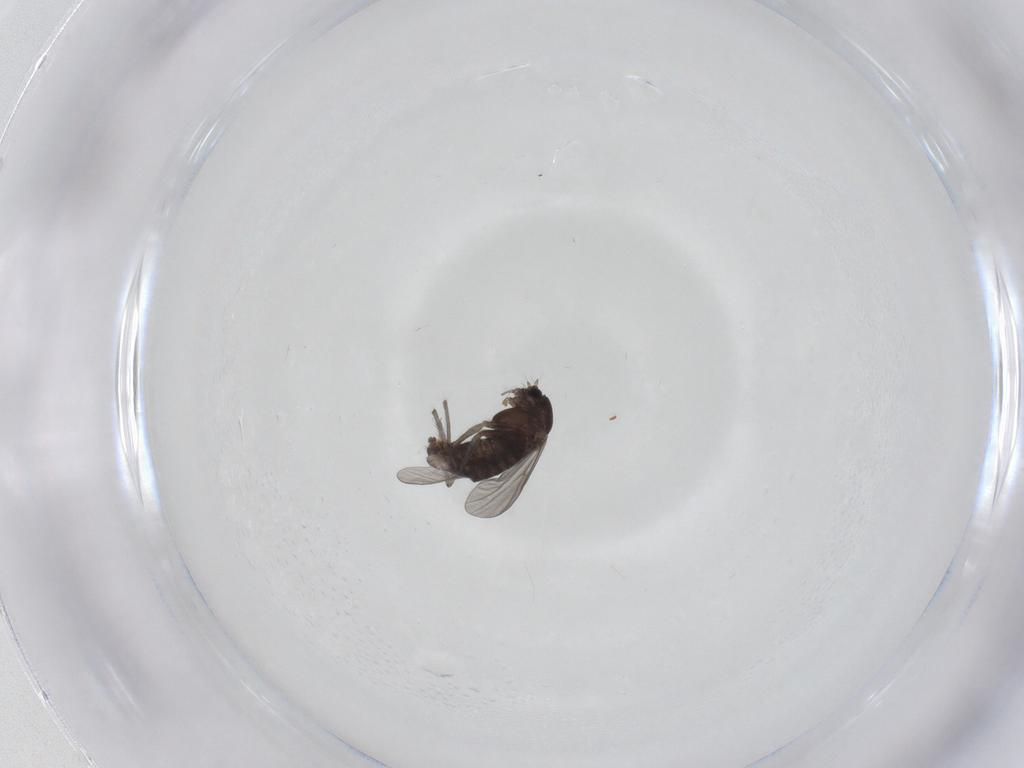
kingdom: Animalia
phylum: Arthropoda
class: Insecta
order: Diptera
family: Chironomidae
